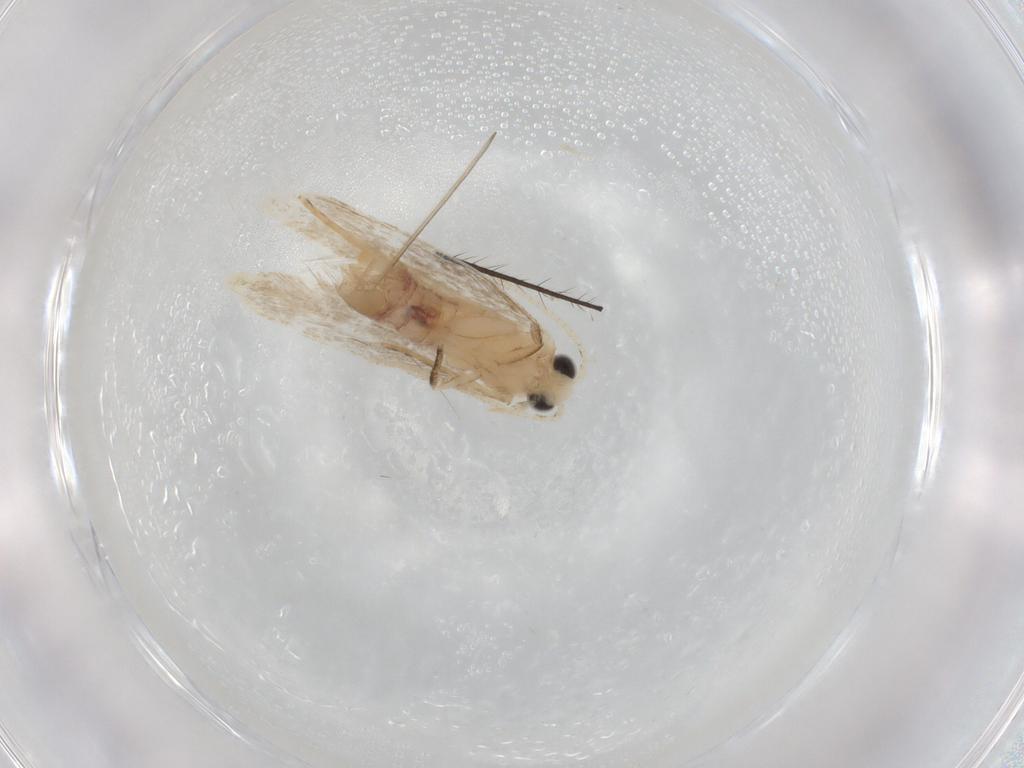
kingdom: Animalia
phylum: Arthropoda
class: Insecta
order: Lepidoptera
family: Dryadaulidae
